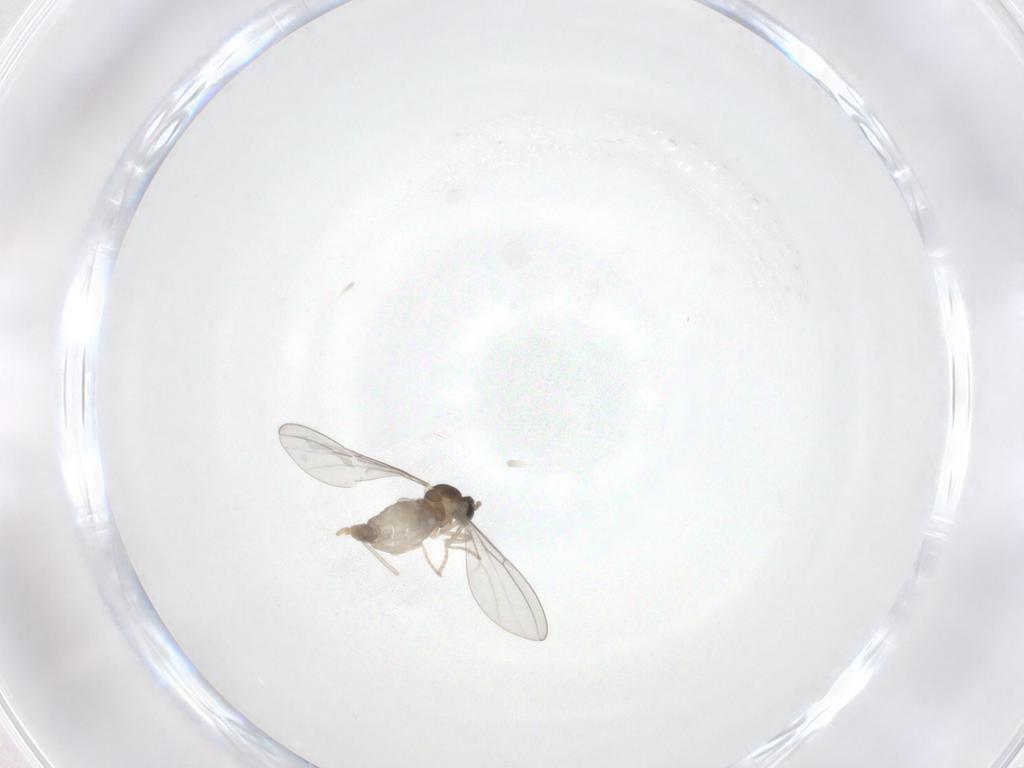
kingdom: Animalia
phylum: Arthropoda
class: Insecta
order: Diptera
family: Cecidomyiidae
